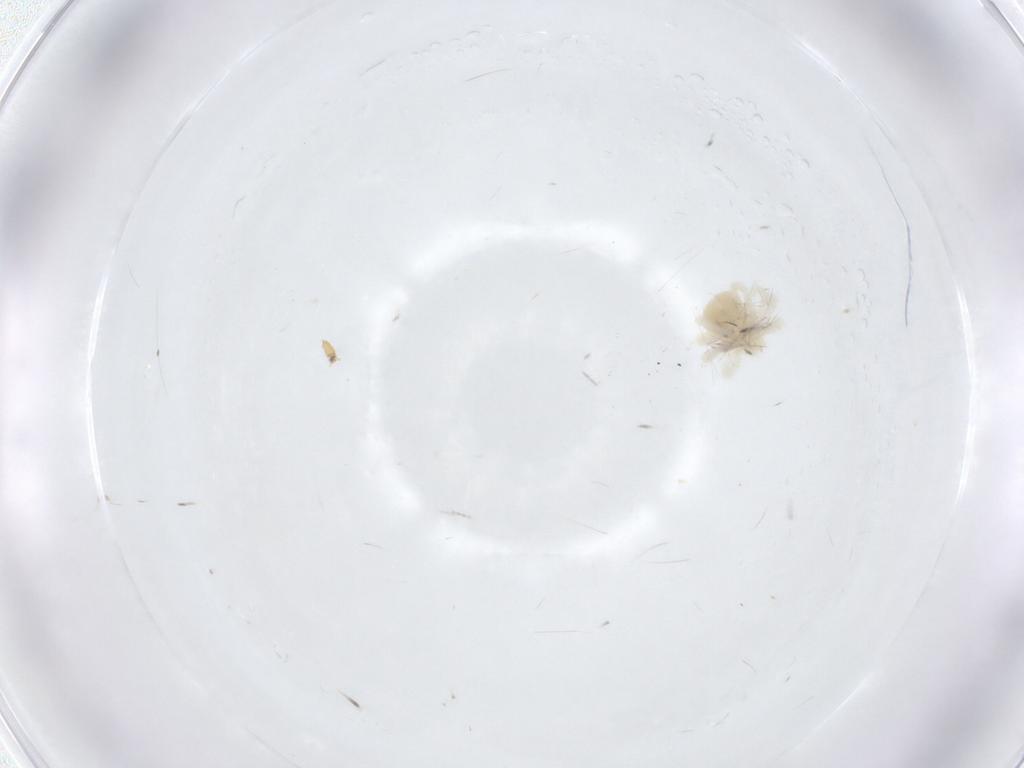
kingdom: Animalia
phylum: Arthropoda
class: Arachnida
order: Trombidiformes
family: Anystidae
